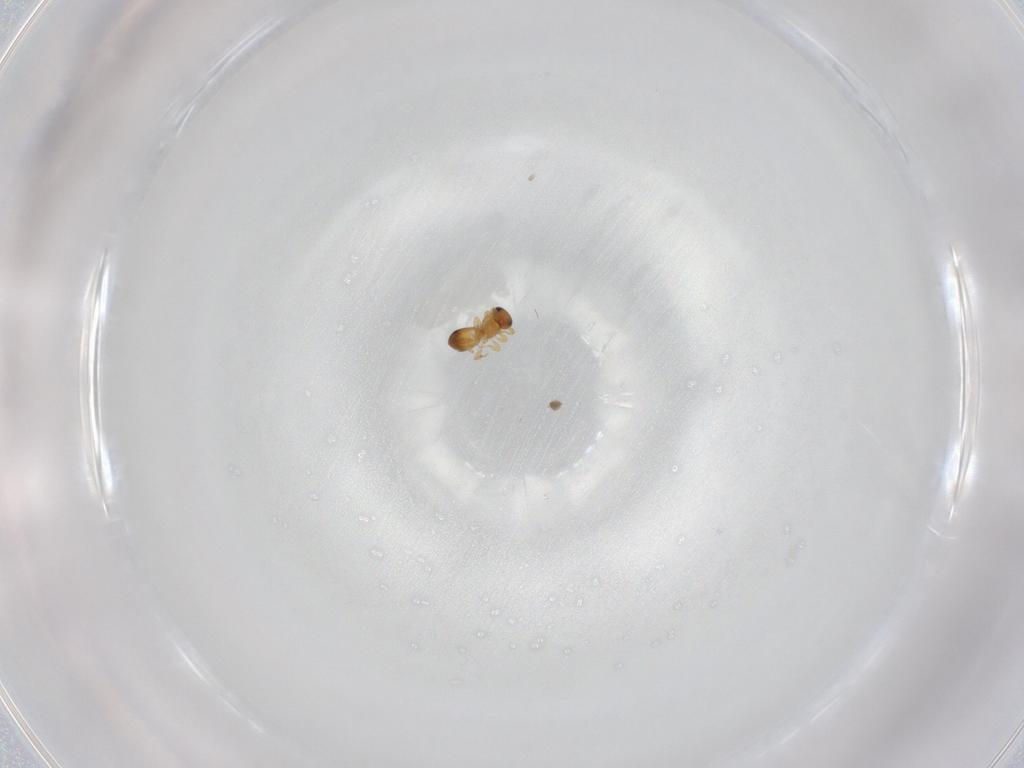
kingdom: Animalia
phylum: Arthropoda
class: Insecta
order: Hymenoptera
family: Platygastridae
